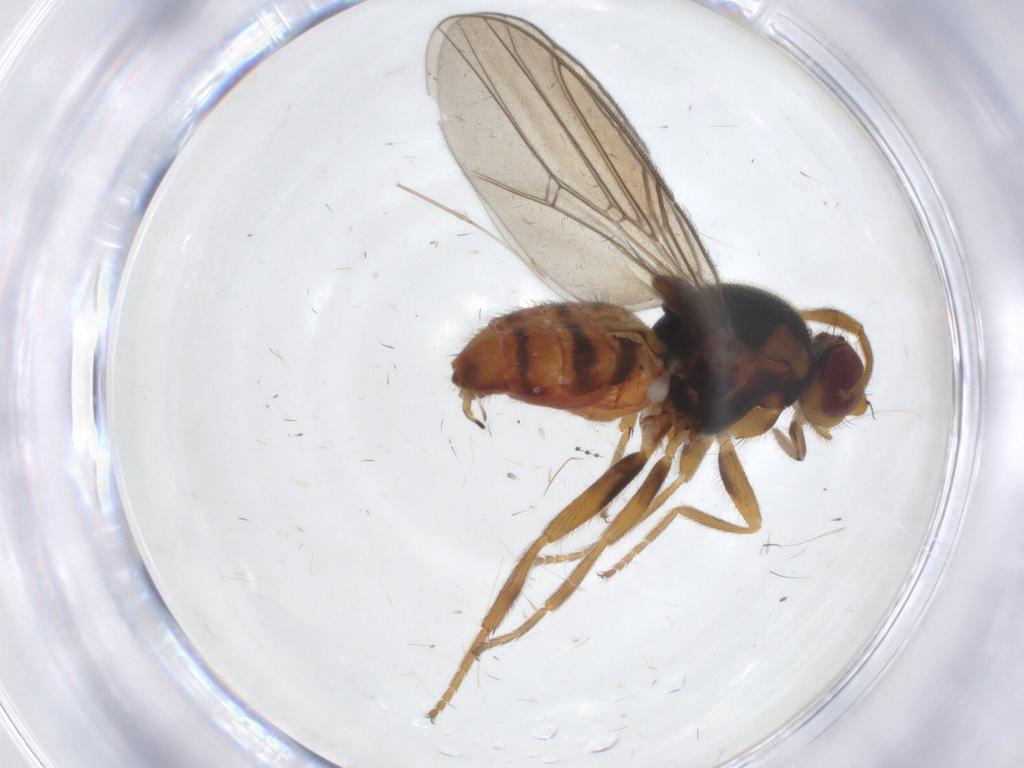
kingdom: Animalia
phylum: Arthropoda
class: Insecta
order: Diptera
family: Chloropidae
